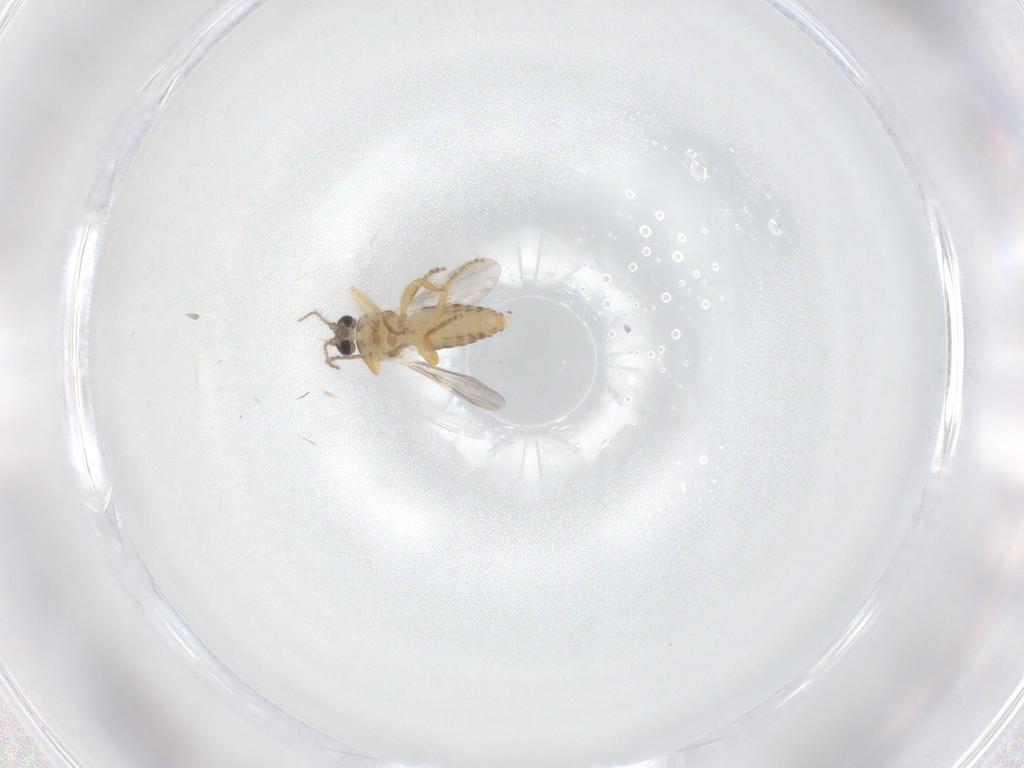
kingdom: Animalia
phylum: Arthropoda
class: Insecta
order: Diptera
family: Ceratopogonidae
